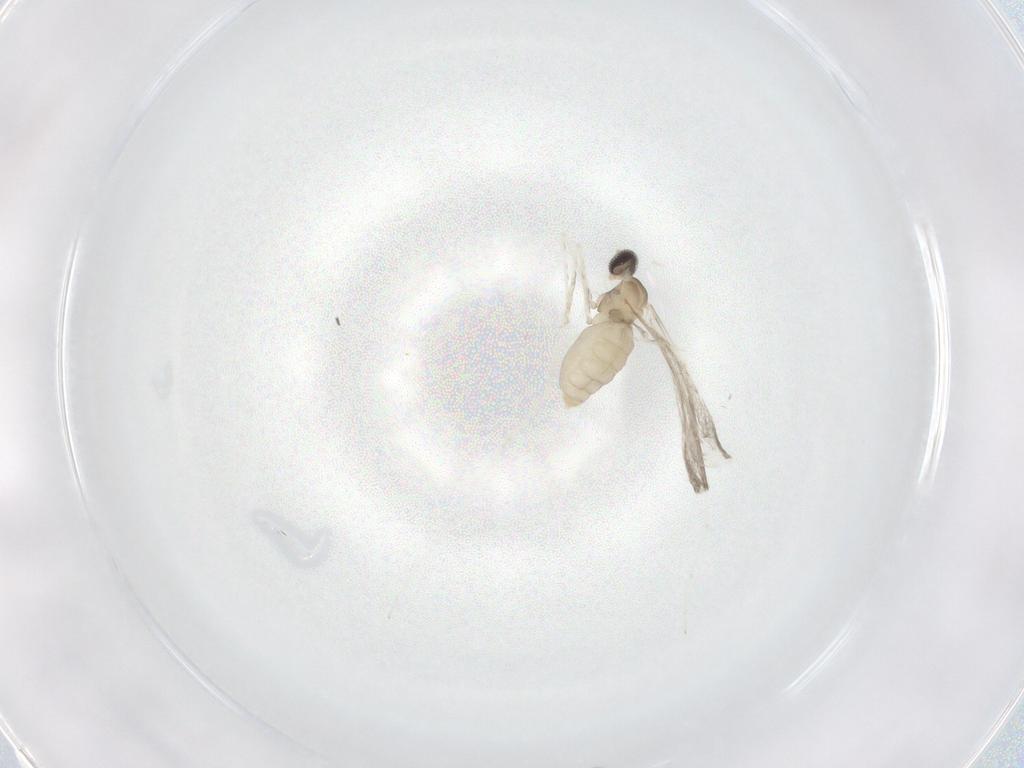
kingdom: Animalia
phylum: Arthropoda
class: Insecta
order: Diptera
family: Cecidomyiidae
